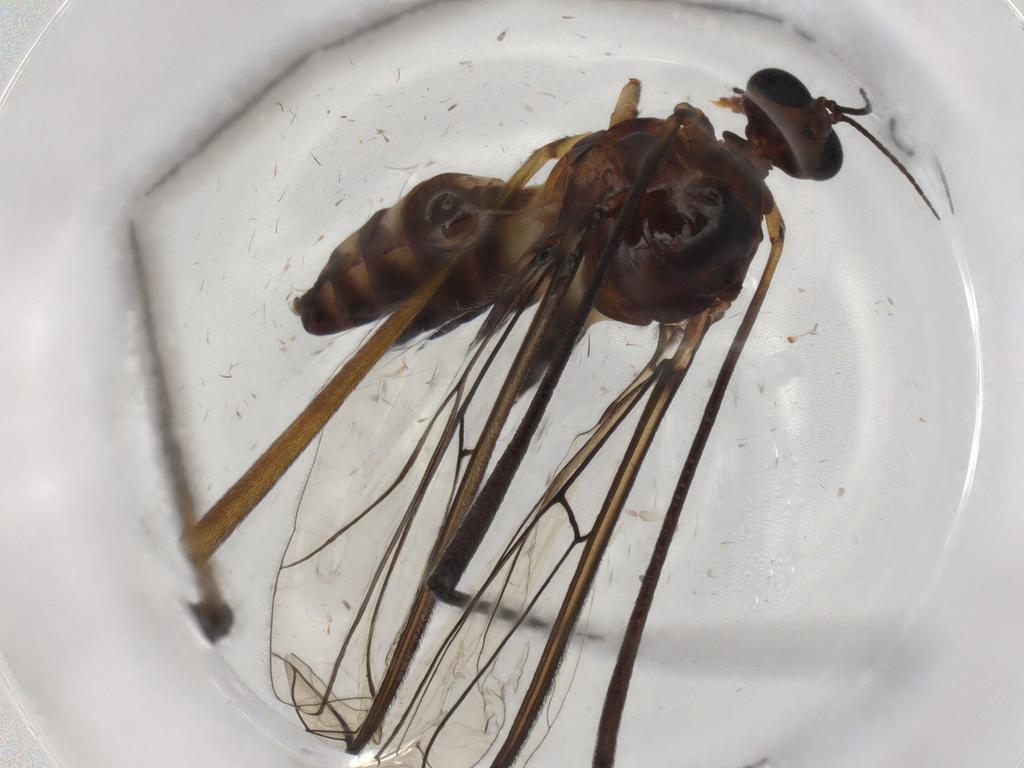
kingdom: Animalia
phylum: Arthropoda
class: Insecta
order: Diptera
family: Blephariceridae
